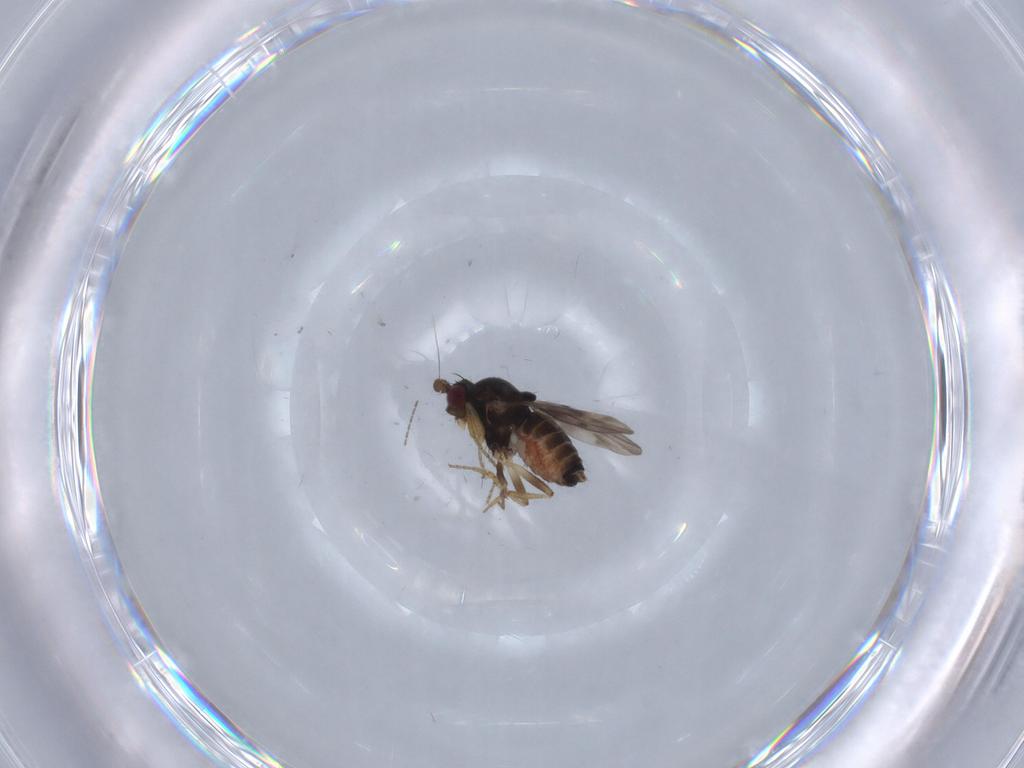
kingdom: Animalia
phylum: Arthropoda
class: Insecta
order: Diptera
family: Sphaeroceridae
